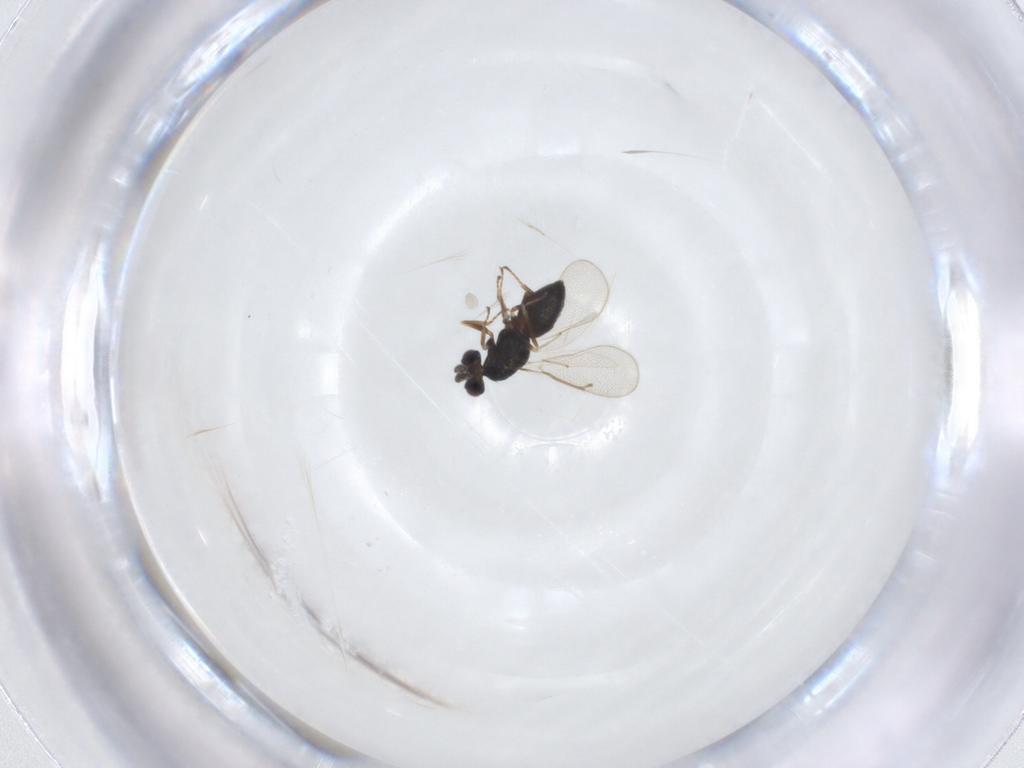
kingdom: Animalia
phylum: Arthropoda
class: Insecta
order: Hymenoptera
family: Eulophidae
